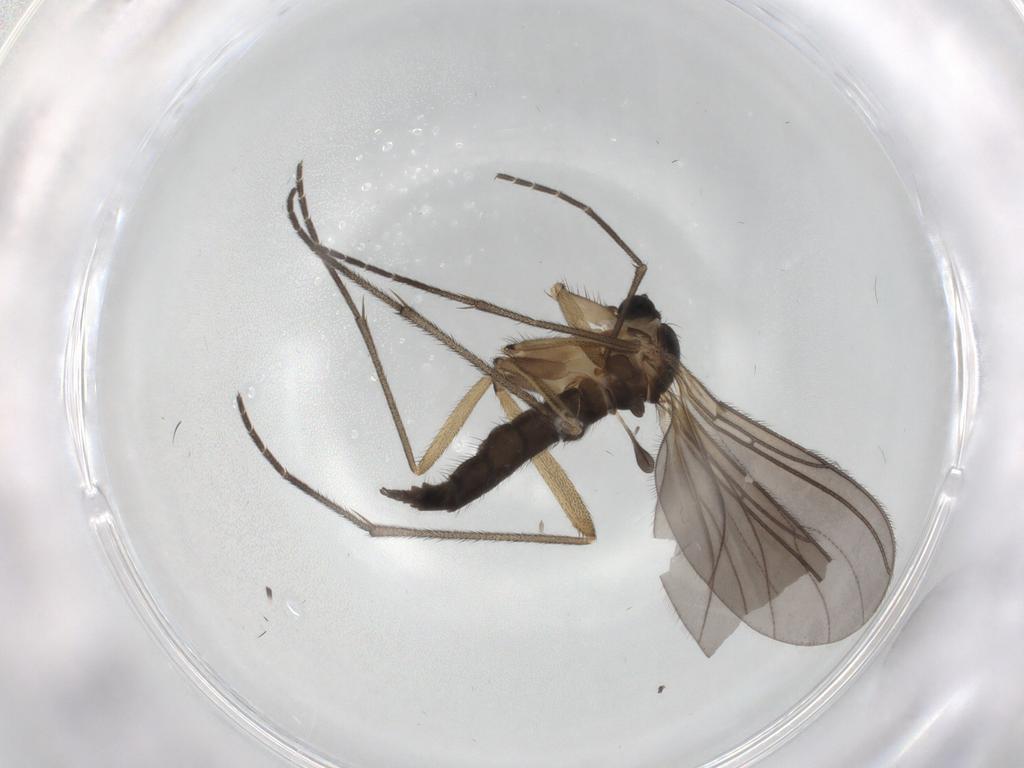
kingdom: Animalia
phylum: Arthropoda
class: Insecta
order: Diptera
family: Sciaridae
